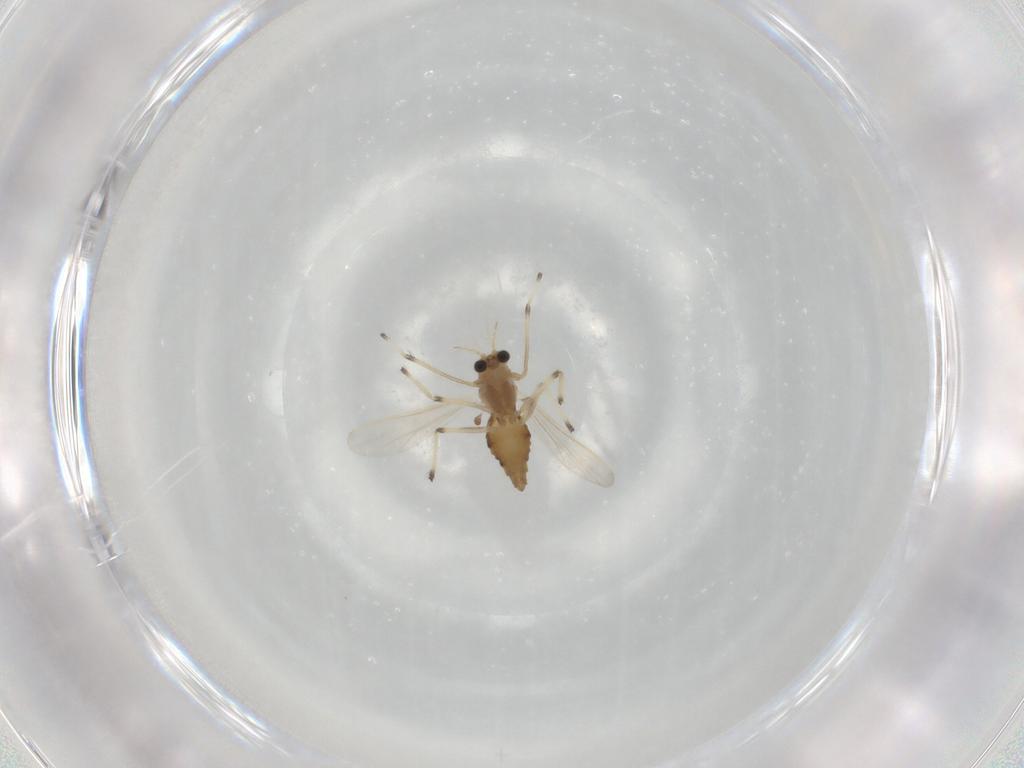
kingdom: Animalia
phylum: Arthropoda
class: Insecta
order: Diptera
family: Chironomidae
